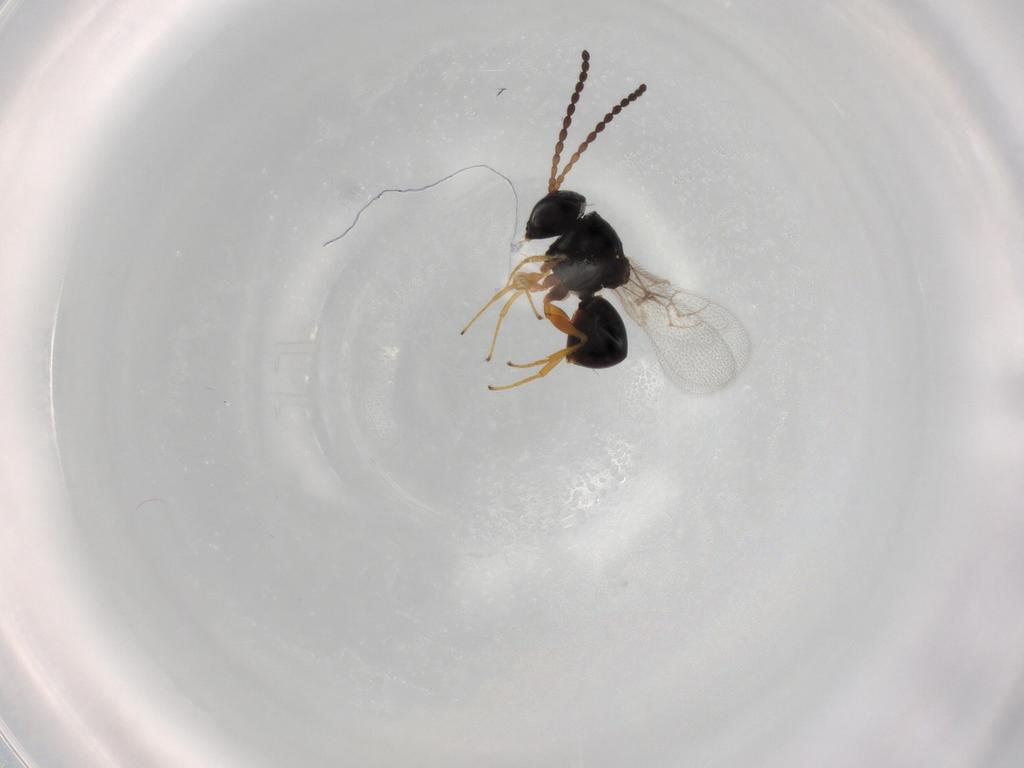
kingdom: Animalia
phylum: Arthropoda
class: Insecta
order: Hymenoptera
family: Figitidae
